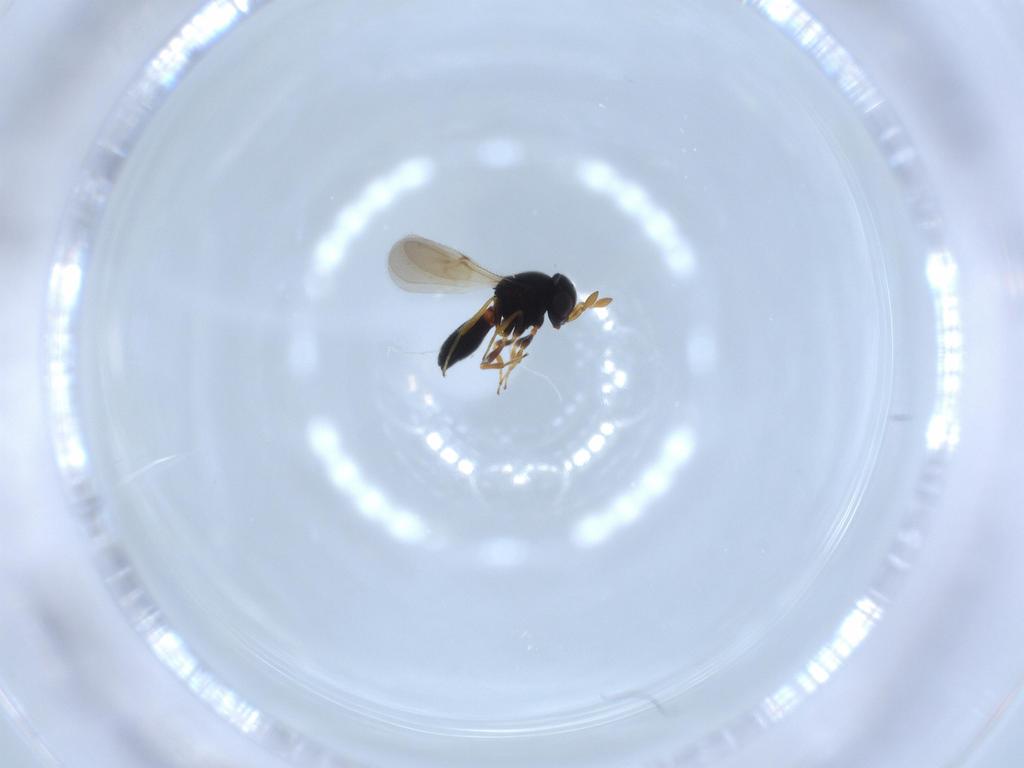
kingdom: Animalia
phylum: Arthropoda
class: Insecta
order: Hymenoptera
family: Scelionidae
